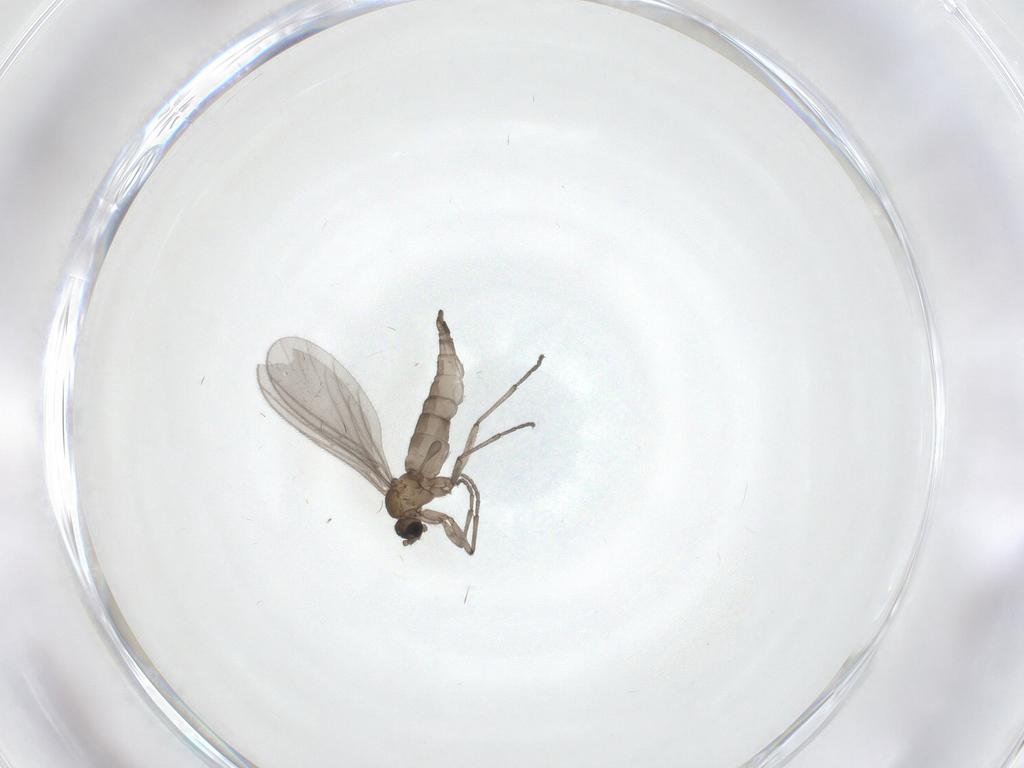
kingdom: Animalia
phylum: Arthropoda
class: Insecta
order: Diptera
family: Sciaridae
